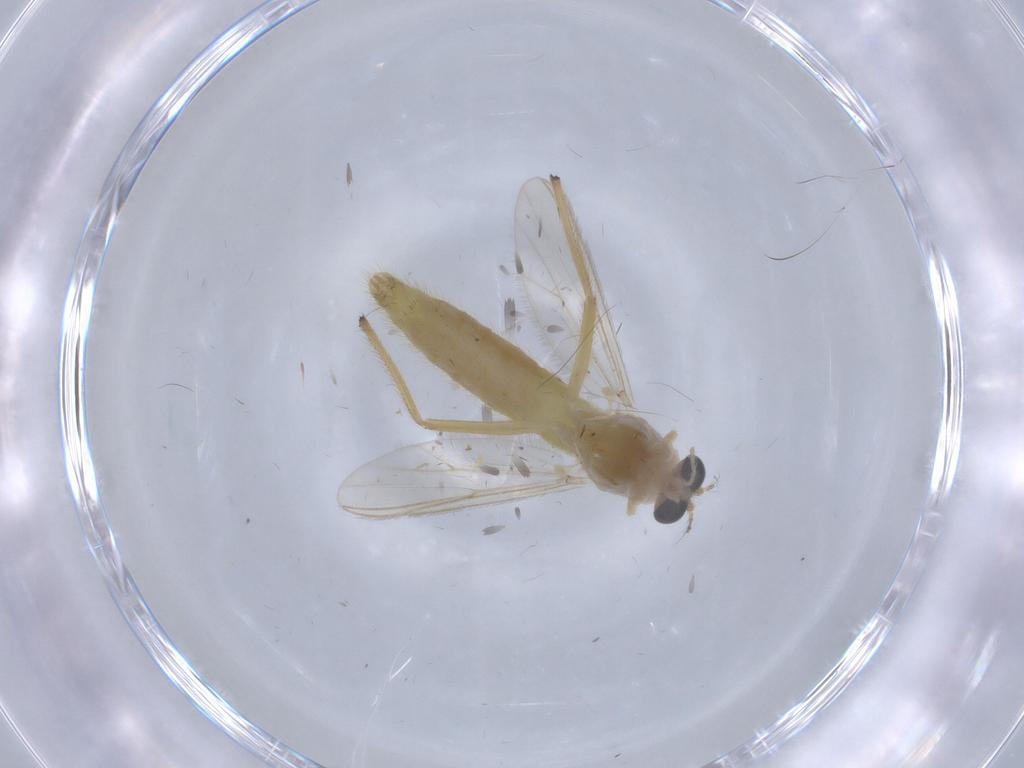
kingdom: Animalia
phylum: Arthropoda
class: Insecta
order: Diptera
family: Chironomidae
